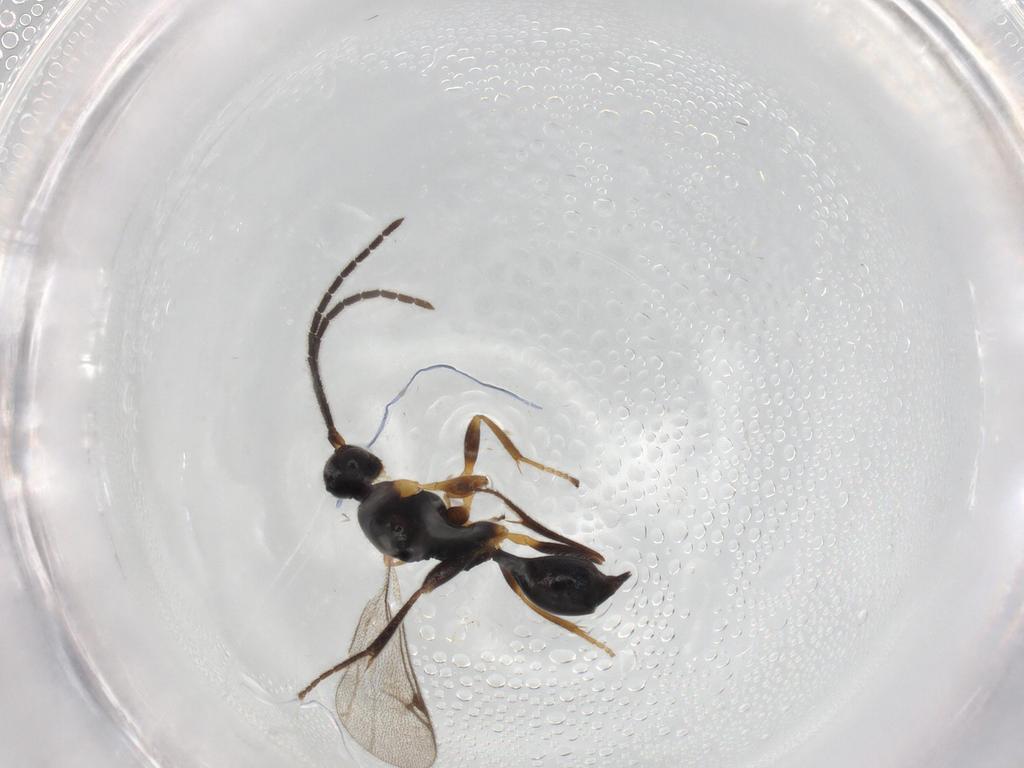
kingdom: Animalia
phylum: Arthropoda
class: Insecta
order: Hymenoptera
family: Proctotrupidae
